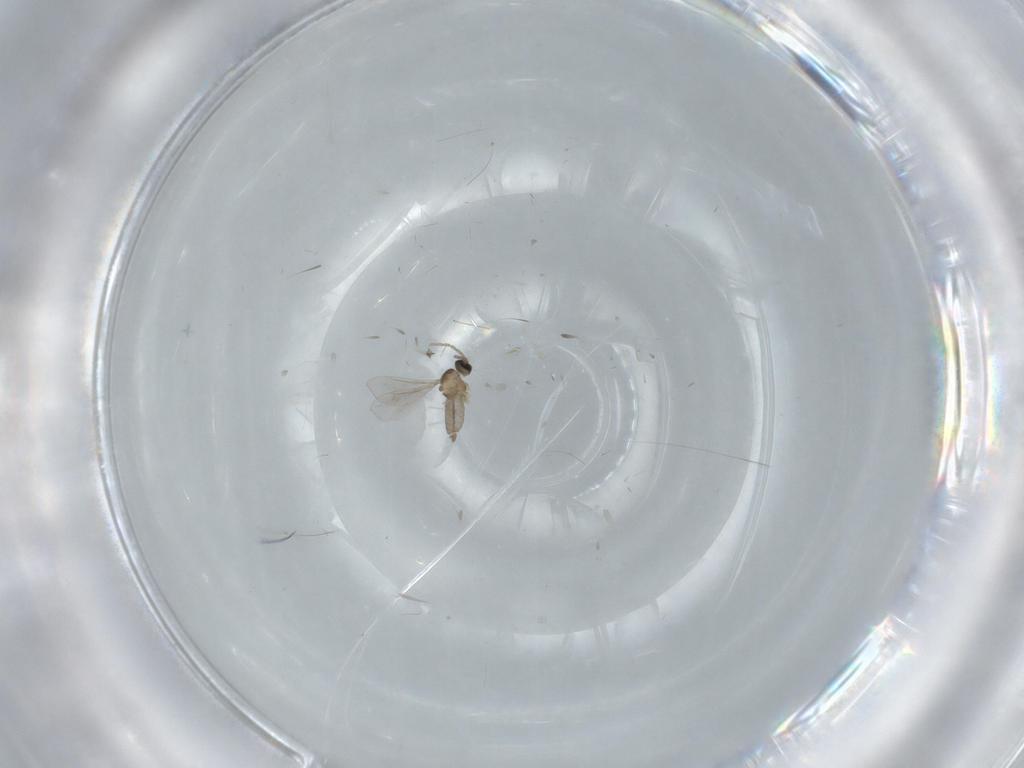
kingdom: Animalia
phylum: Arthropoda
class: Insecta
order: Diptera
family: Cecidomyiidae
